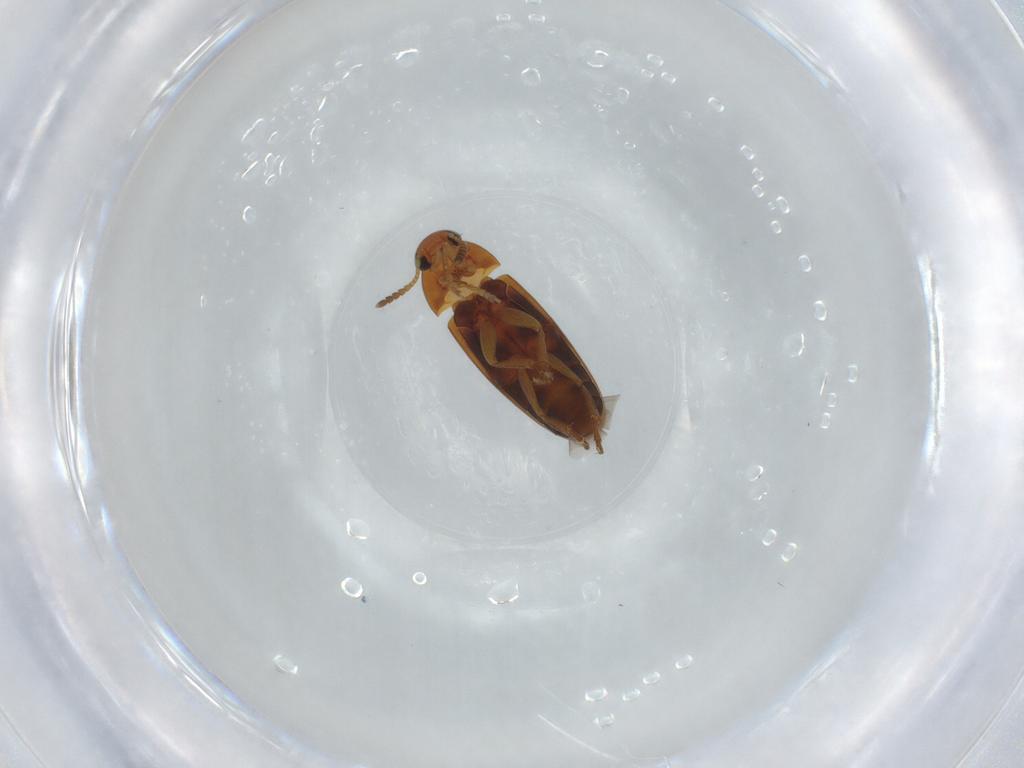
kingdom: Animalia
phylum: Arthropoda
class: Insecta
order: Coleoptera
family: Scraptiidae
